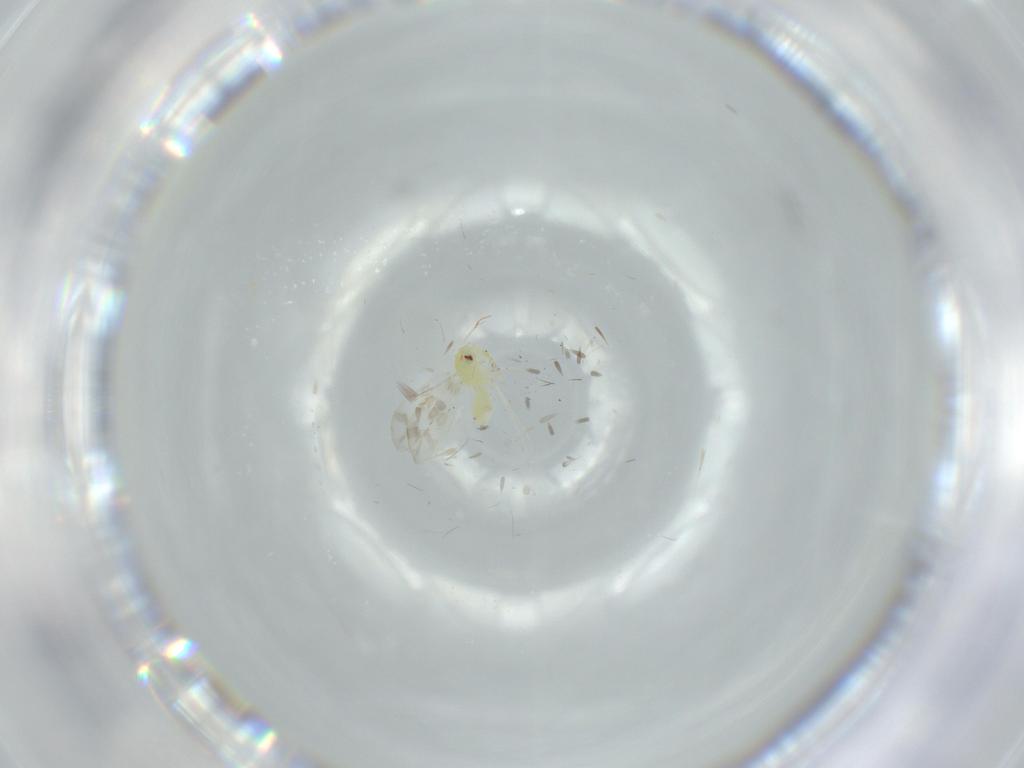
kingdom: Animalia
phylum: Arthropoda
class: Insecta
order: Hemiptera
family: Aleyrodidae
